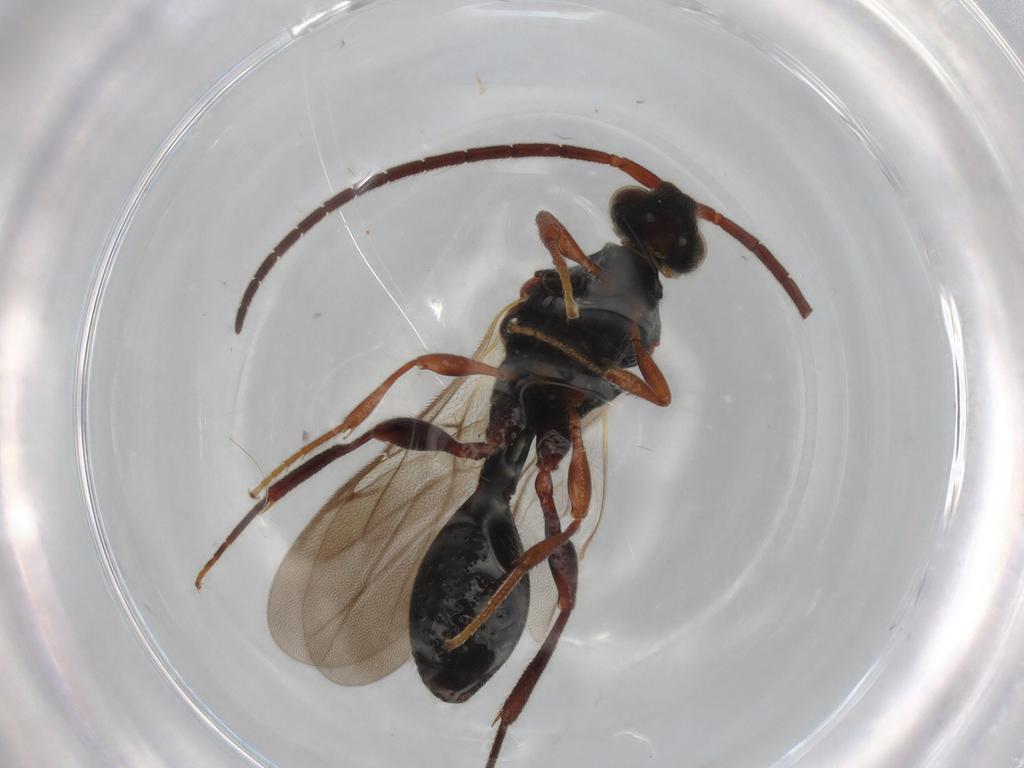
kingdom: Animalia
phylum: Arthropoda
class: Insecta
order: Hymenoptera
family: Diapriidae
